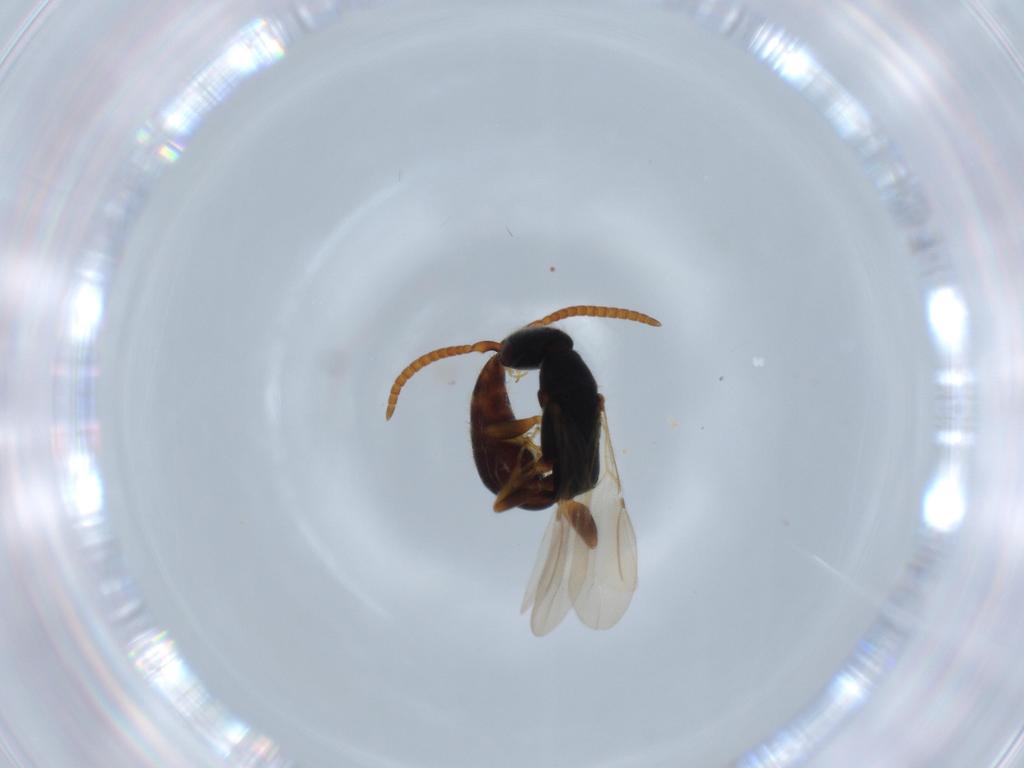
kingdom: Animalia
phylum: Arthropoda
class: Insecta
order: Hymenoptera
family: Bethylidae
